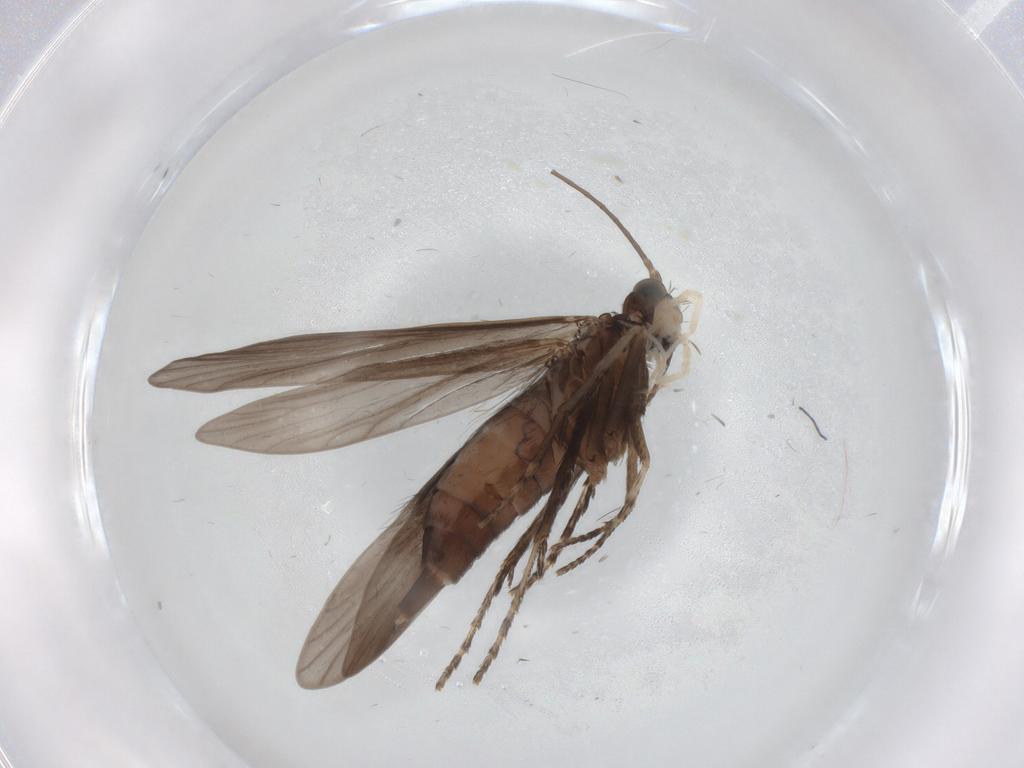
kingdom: Animalia
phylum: Arthropoda
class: Insecta
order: Trichoptera
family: Xiphocentronidae
